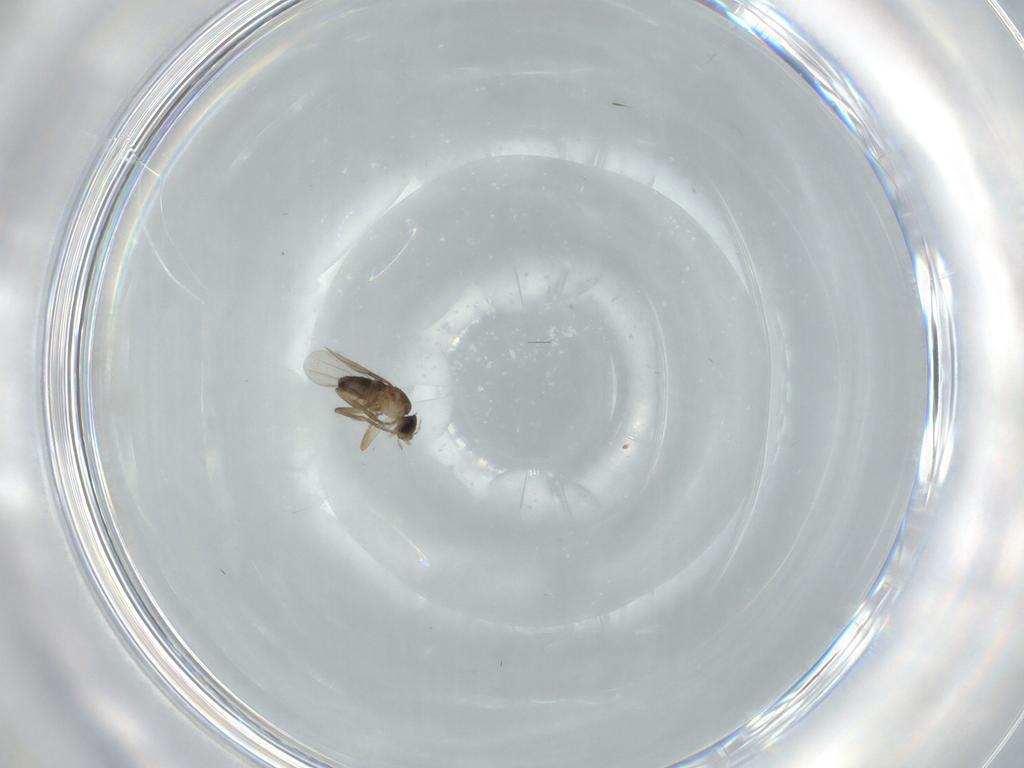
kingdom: Animalia
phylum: Arthropoda
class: Insecta
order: Diptera
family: Phoridae
